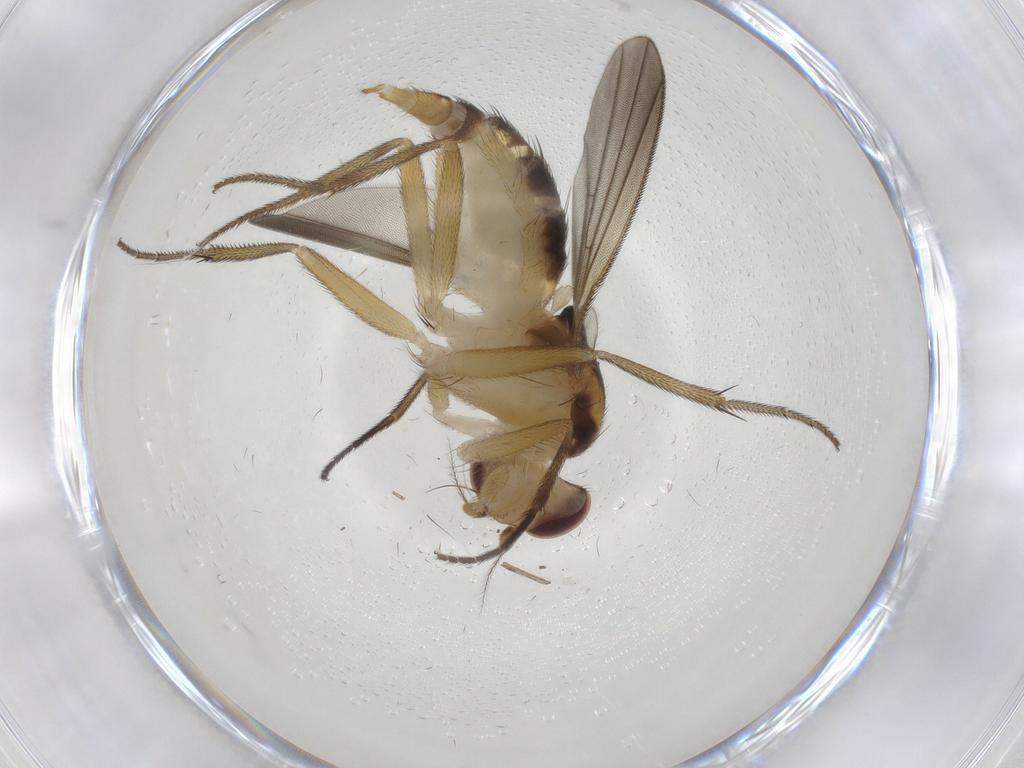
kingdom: Animalia
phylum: Arthropoda
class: Insecta
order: Diptera
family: Clusiidae
